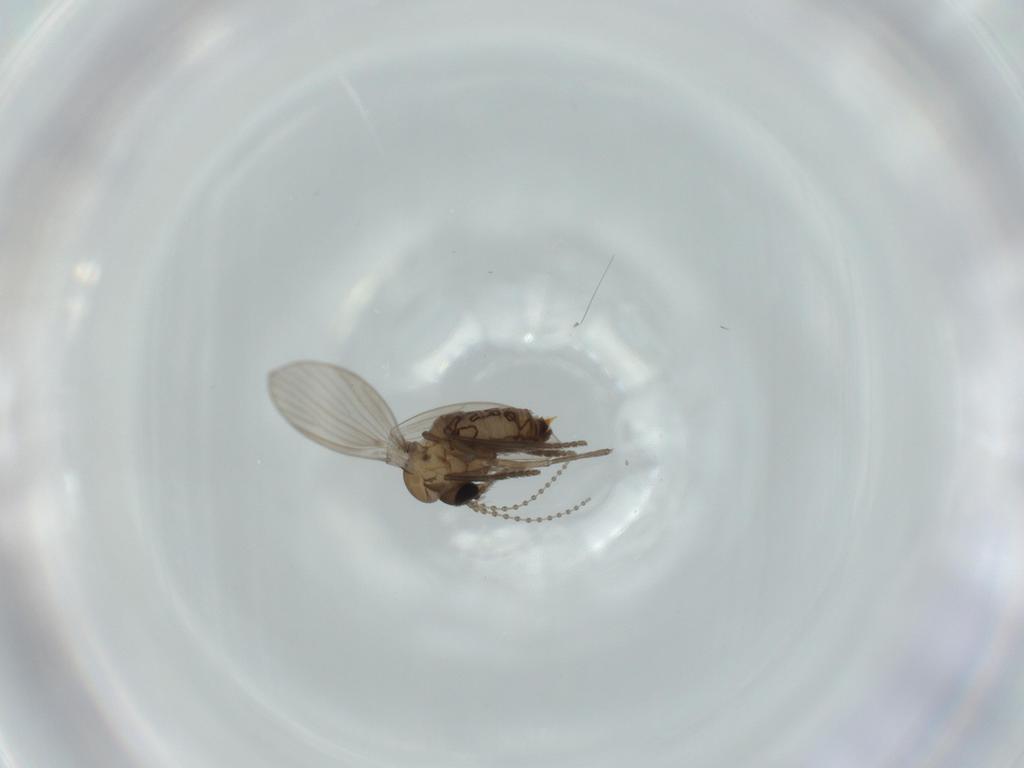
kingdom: Animalia
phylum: Arthropoda
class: Insecta
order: Diptera
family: Psychodidae
